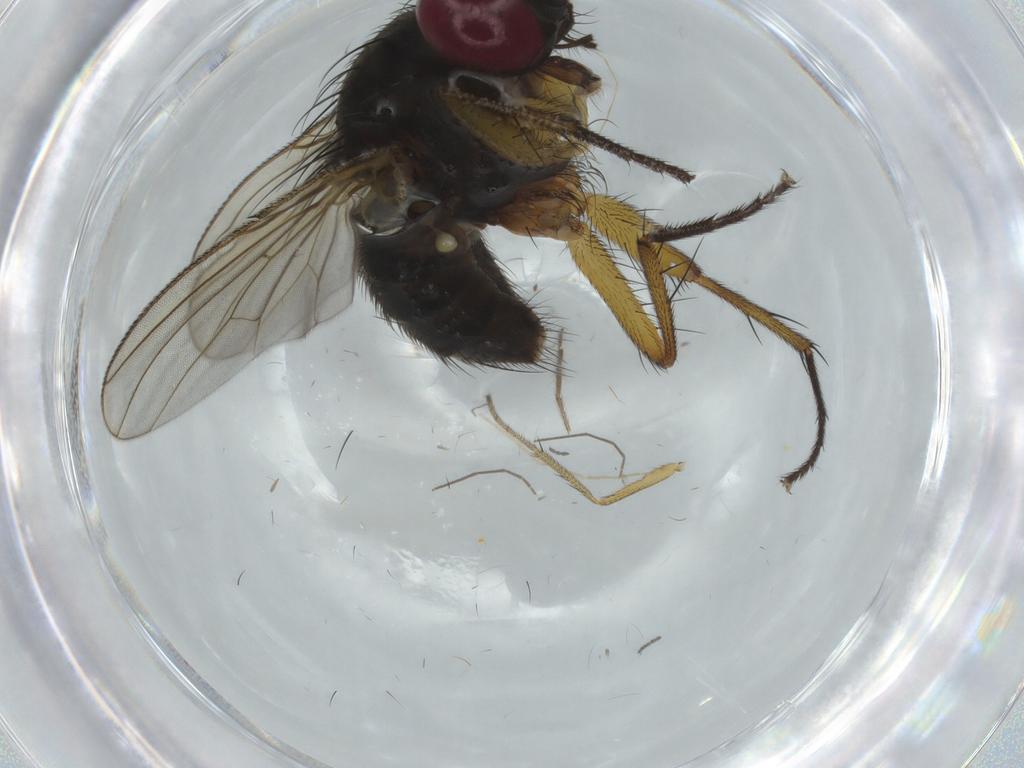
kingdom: Animalia
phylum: Arthropoda
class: Insecta
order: Diptera
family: Muscidae
